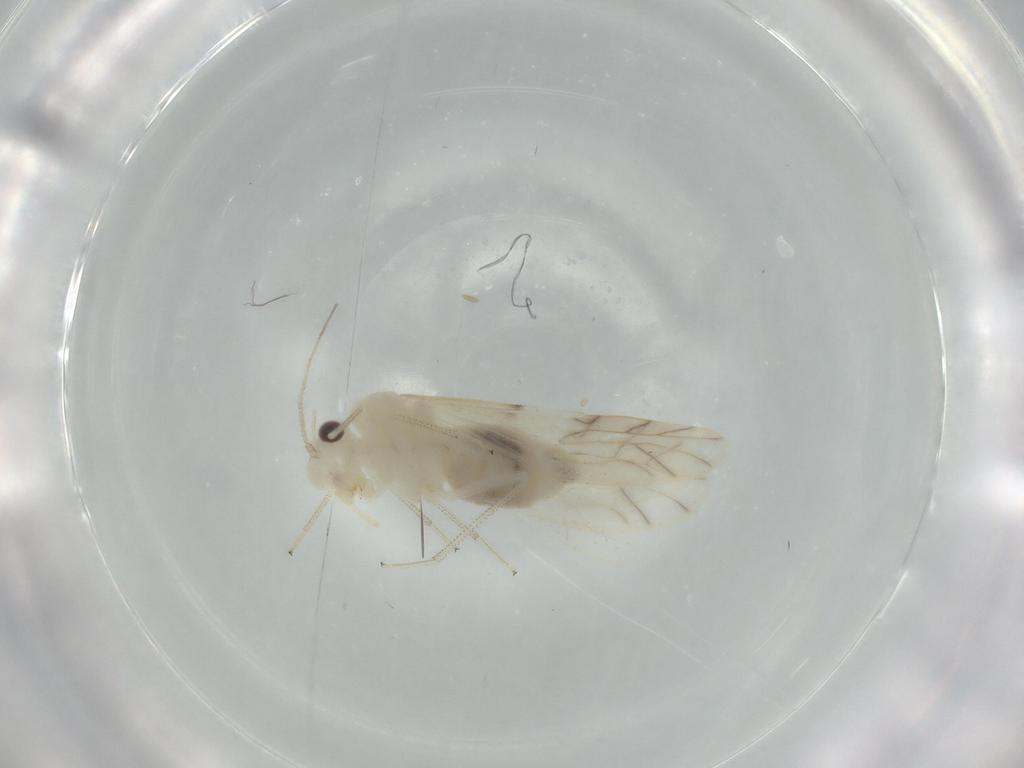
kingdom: Animalia
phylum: Arthropoda
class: Insecta
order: Psocodea
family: Caeciliusidae
